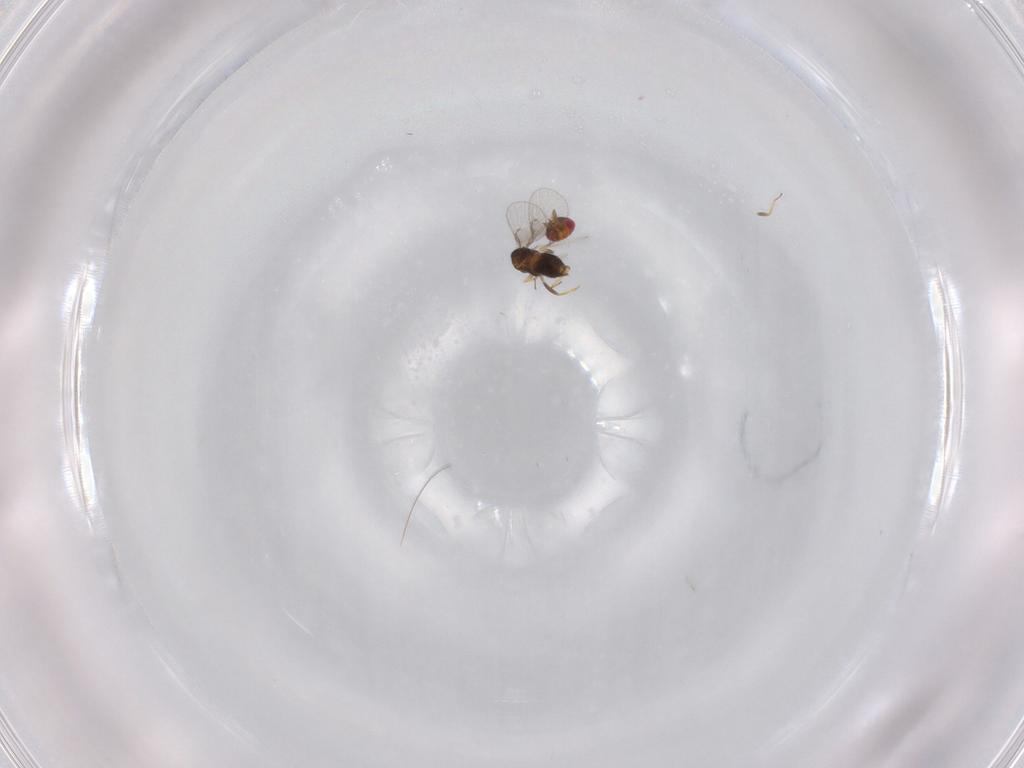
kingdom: Animalia
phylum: Arthropoda
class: Insecta
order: Hymenoptera
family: Trichogrammatidae
